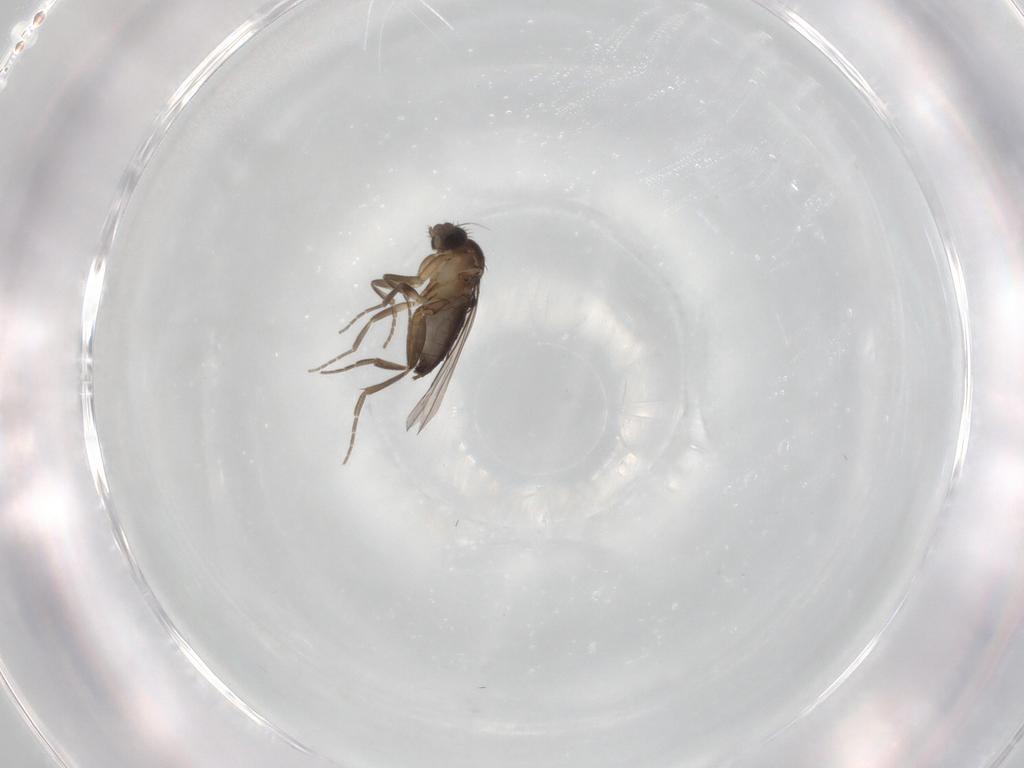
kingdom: Animalia
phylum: Arthropoda
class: Insecta
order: Diptera
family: Phoridae
